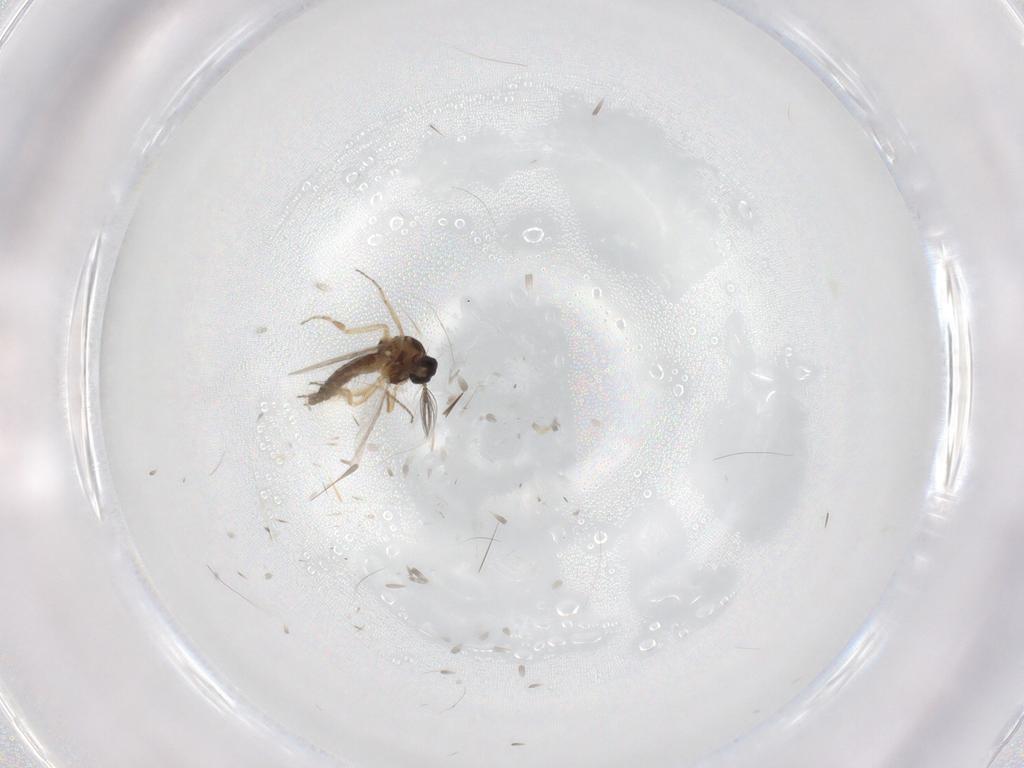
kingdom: Animalia
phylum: Arthropoda
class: Insecta
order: Diptera
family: Ceratopogonidae
